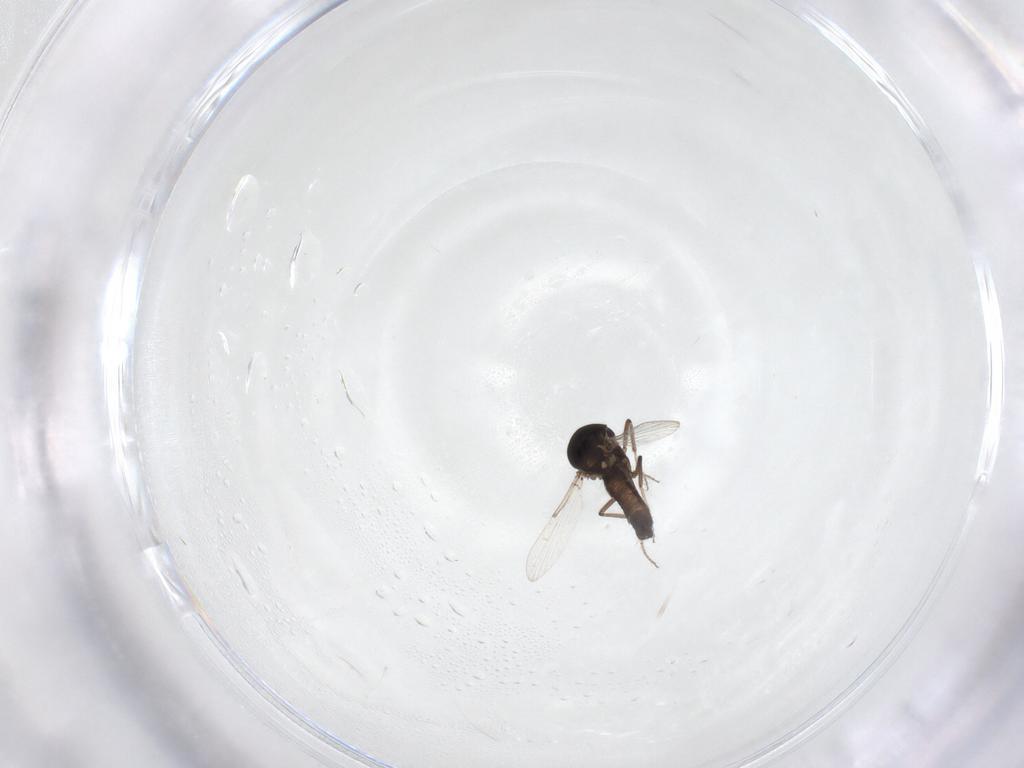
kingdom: Animalia
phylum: Arthropoda
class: Insecta
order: Diptera
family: Ceratopogonidae
